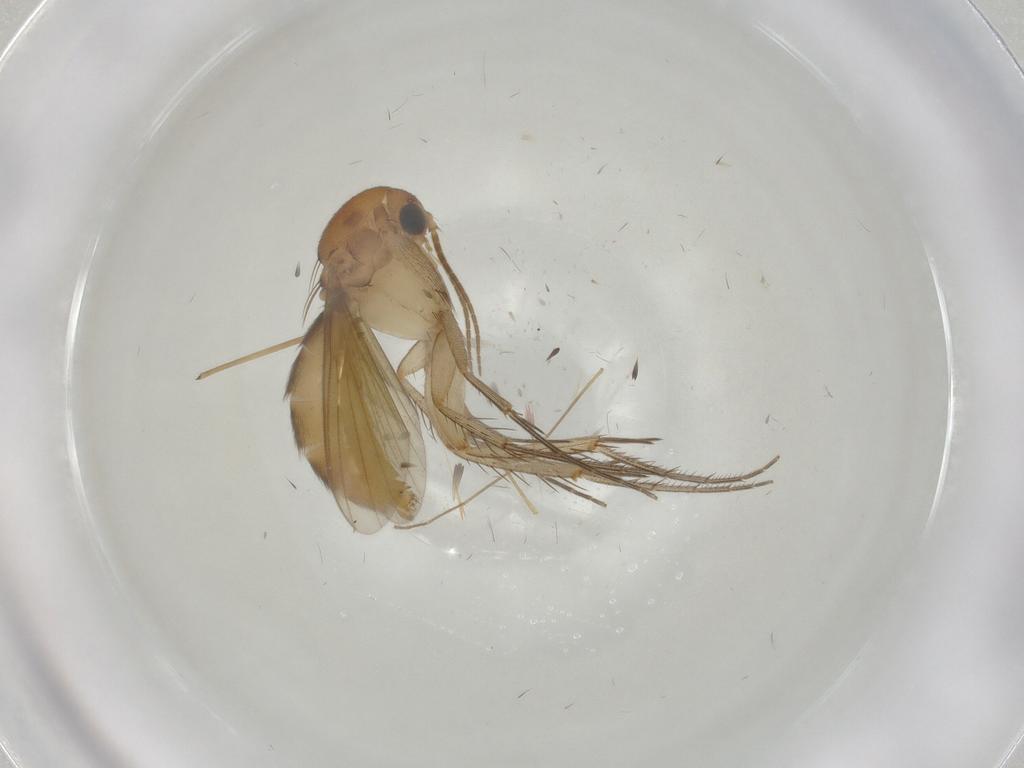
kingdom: Animalia
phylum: Arthropoda
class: Insecta
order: Diptera
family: Mycetophilidae
